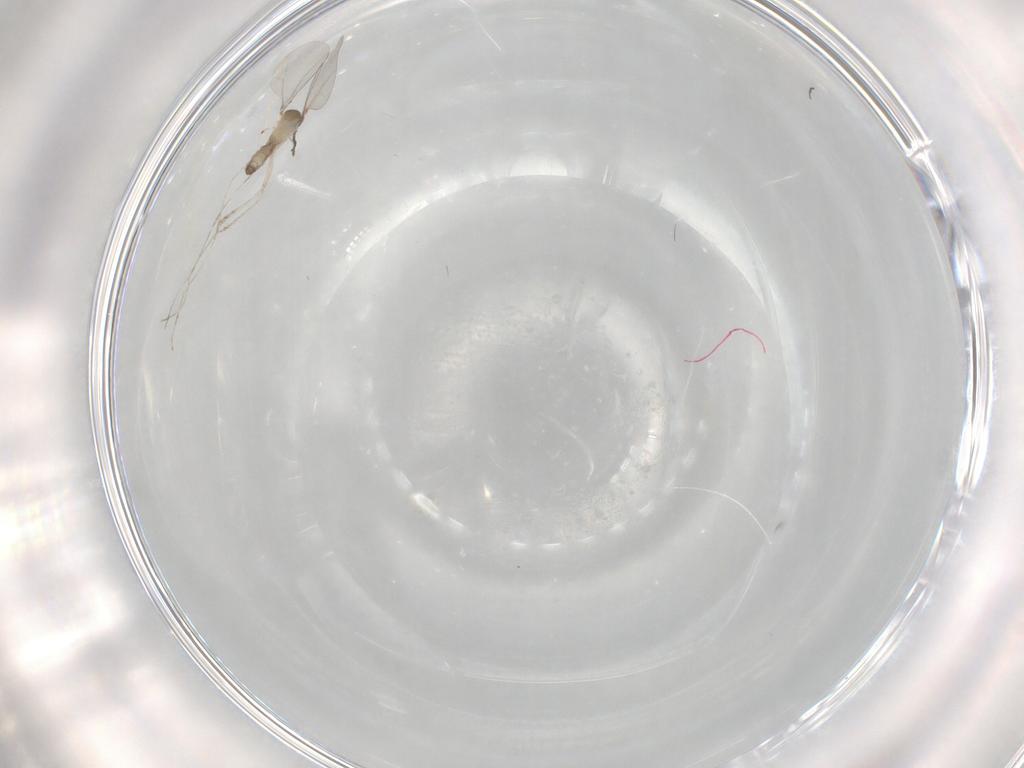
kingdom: Animalia
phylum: Arthropoda
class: Insecta
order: Diptera
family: Cecidomyiidae
